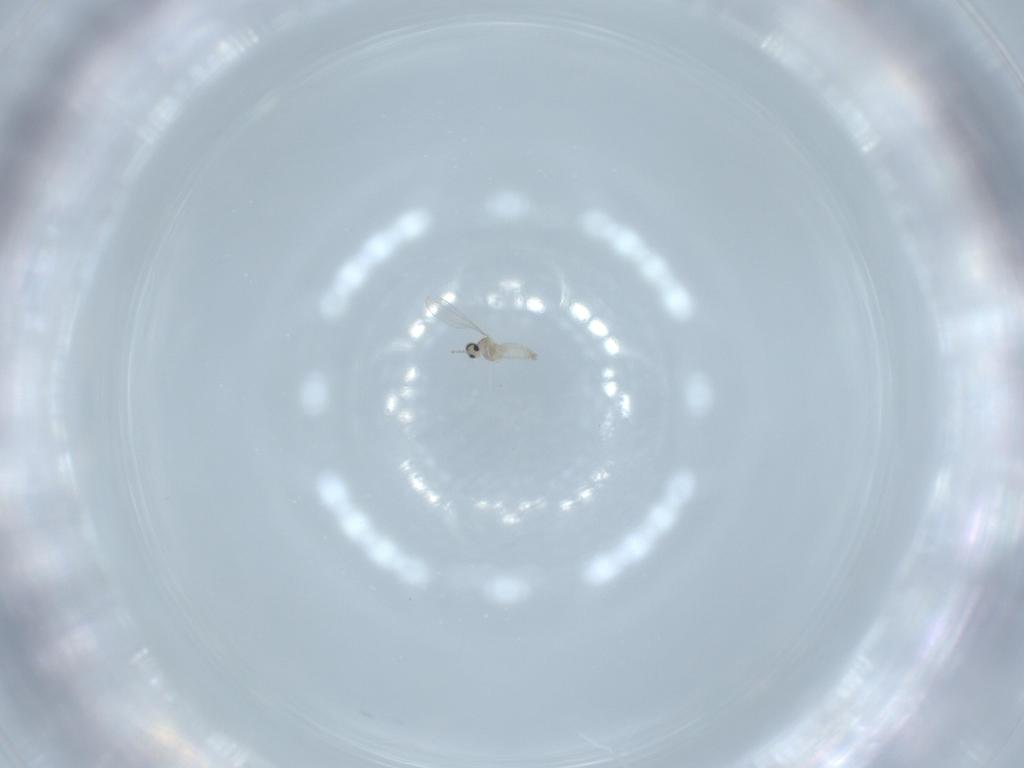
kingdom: Animalia
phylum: Arthropoda
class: Insecta
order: Diptera
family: Cecidomyiidae
